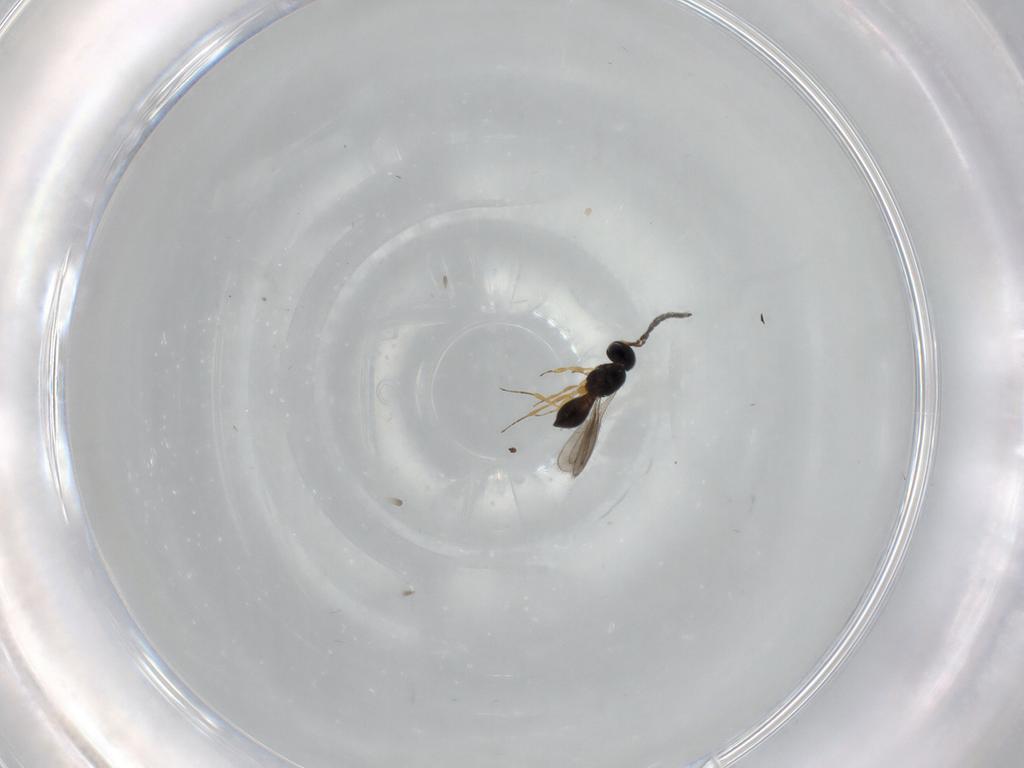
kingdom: Animalia
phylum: Arthropoda
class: Insecta
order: Hymenoptera
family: Scelionidae
